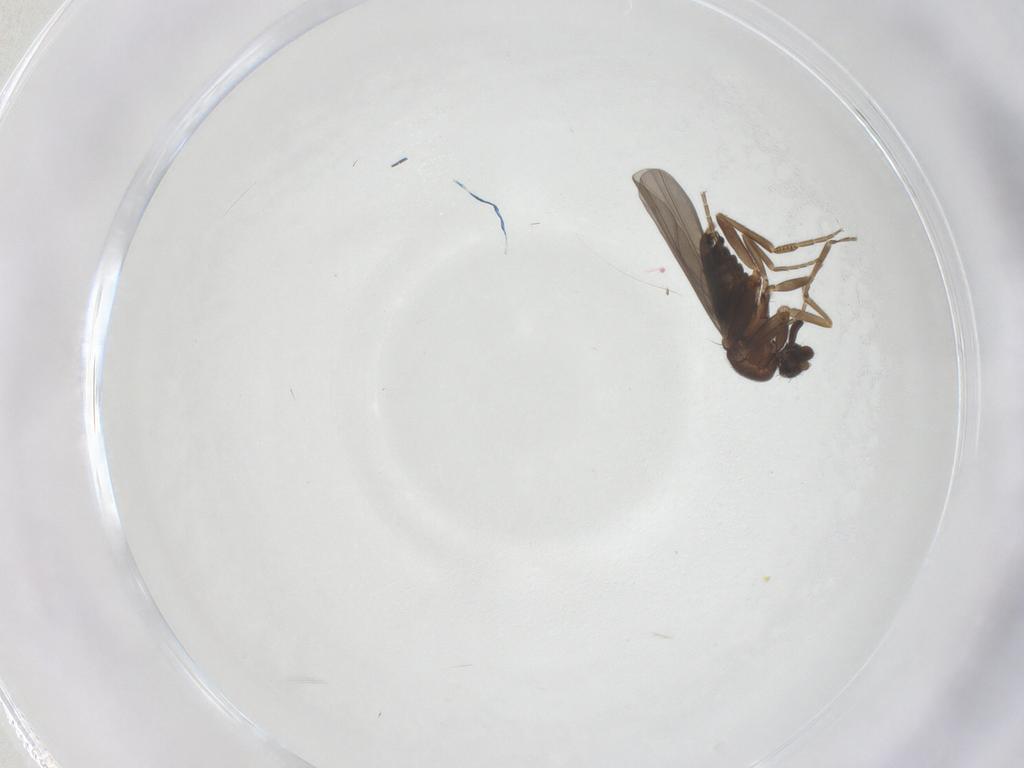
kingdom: Animalia
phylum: Arthropoda
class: Insecta
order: Diptera
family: Phoridae
